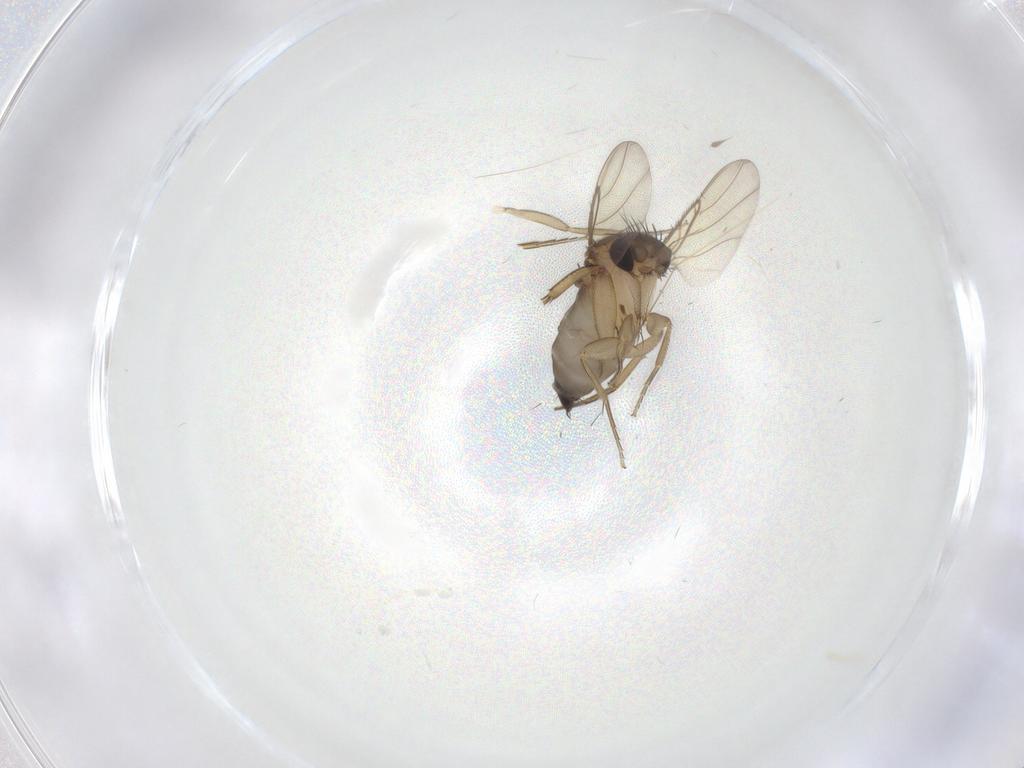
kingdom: Animalia
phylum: Arthropoda
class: Insecta
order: Diptera
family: Phoridae
